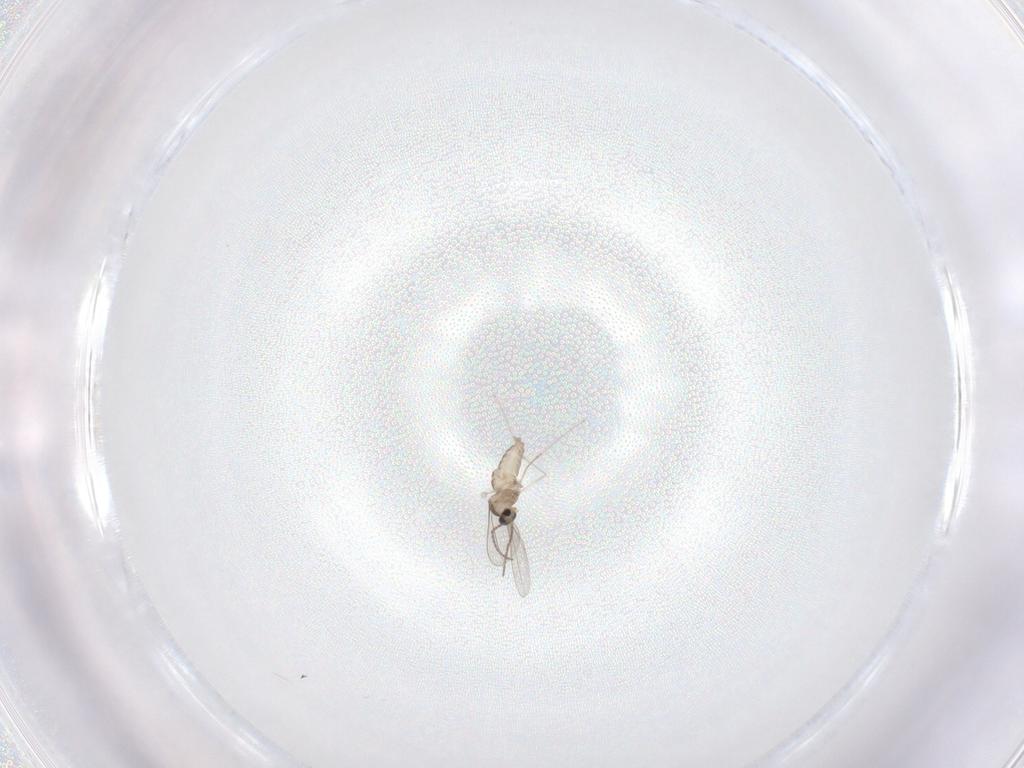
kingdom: Animalia
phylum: Arthropoda
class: Insecta
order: Diptera
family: Cecidomyiidae
